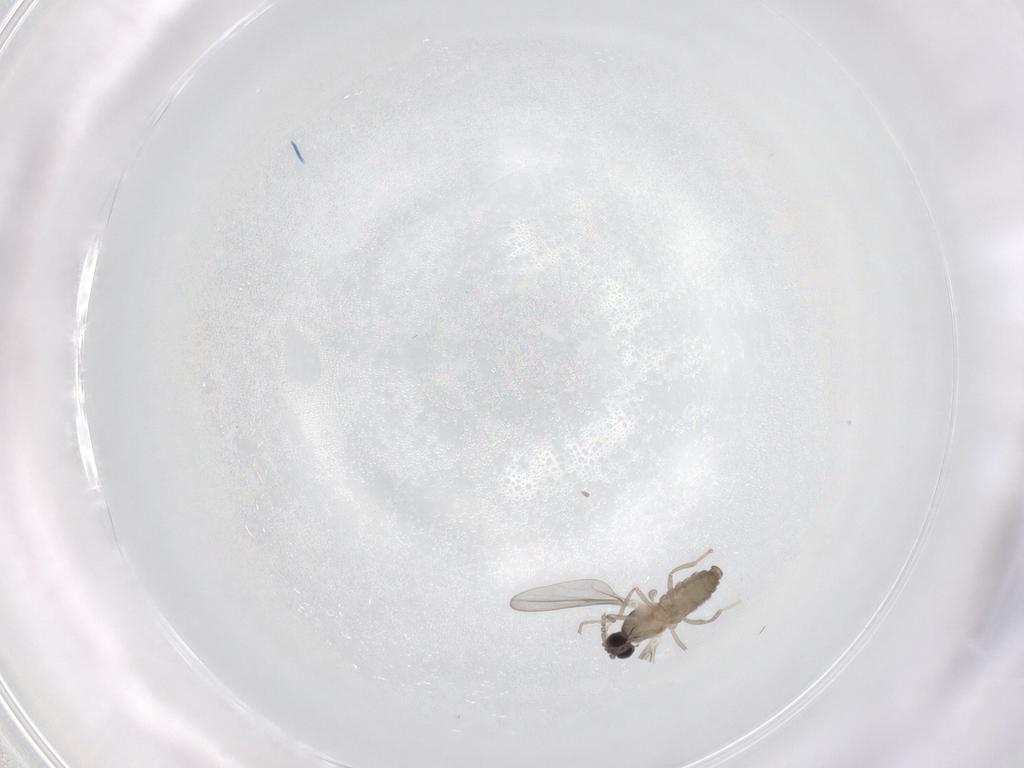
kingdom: Animalia
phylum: Arthropoda
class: Insecta
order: Diptera
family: Cecidomyiidae
